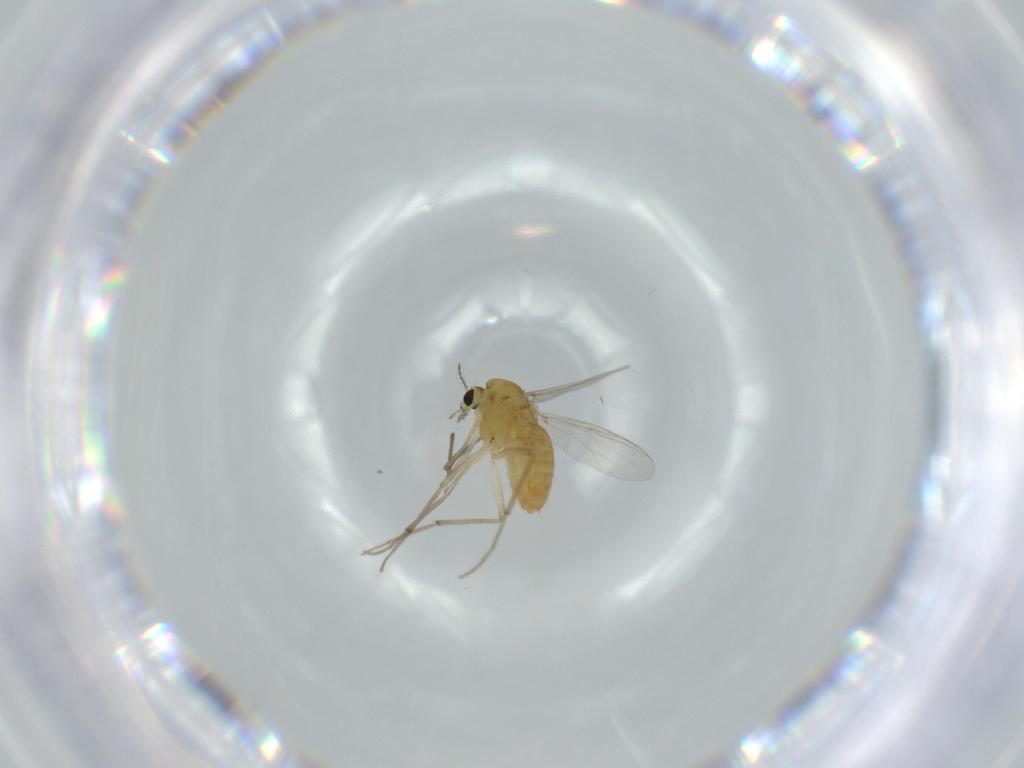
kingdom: Animalia
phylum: Arthropoda
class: Insecta
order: Diptera
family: Chironomidae
